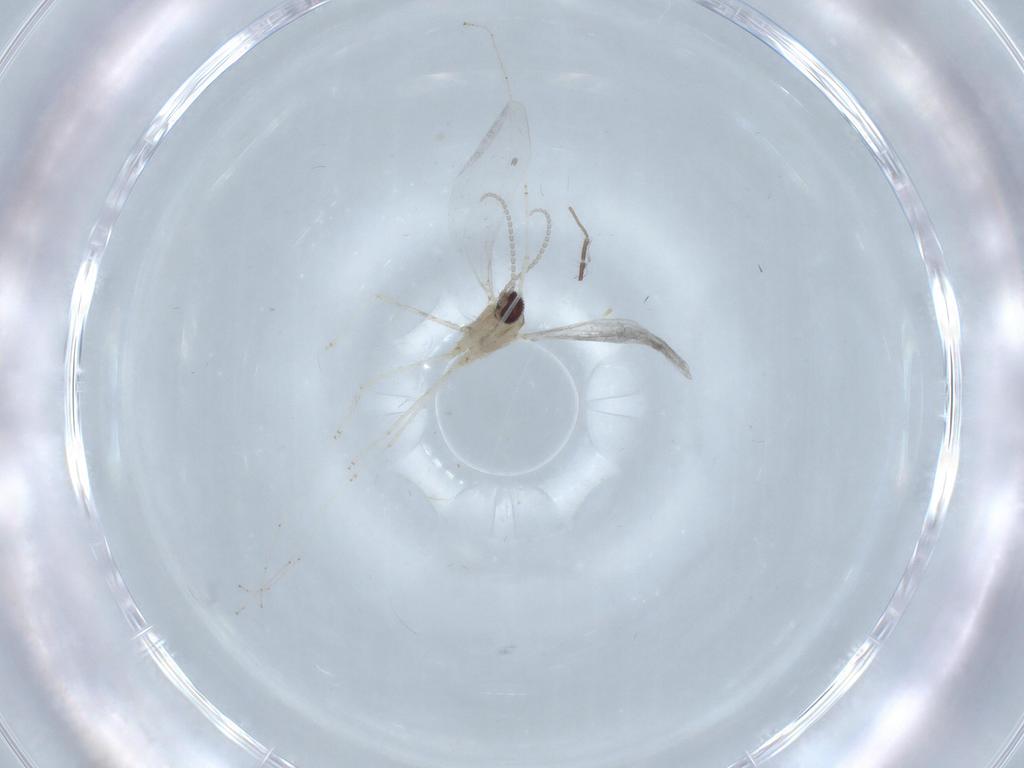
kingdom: Animalia
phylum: Arthropoda
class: Insecta
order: Diptera
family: Cecidomyiidae
